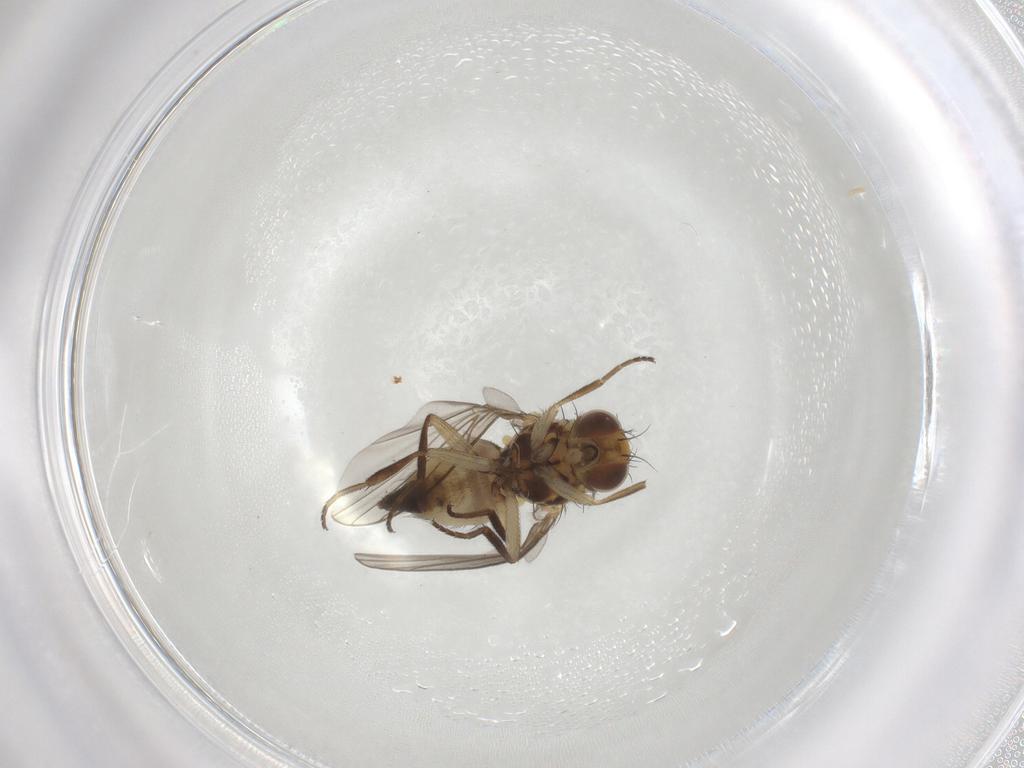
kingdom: Animalia
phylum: Arthropoda
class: Insecta
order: Diptera
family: Agromyzidae
